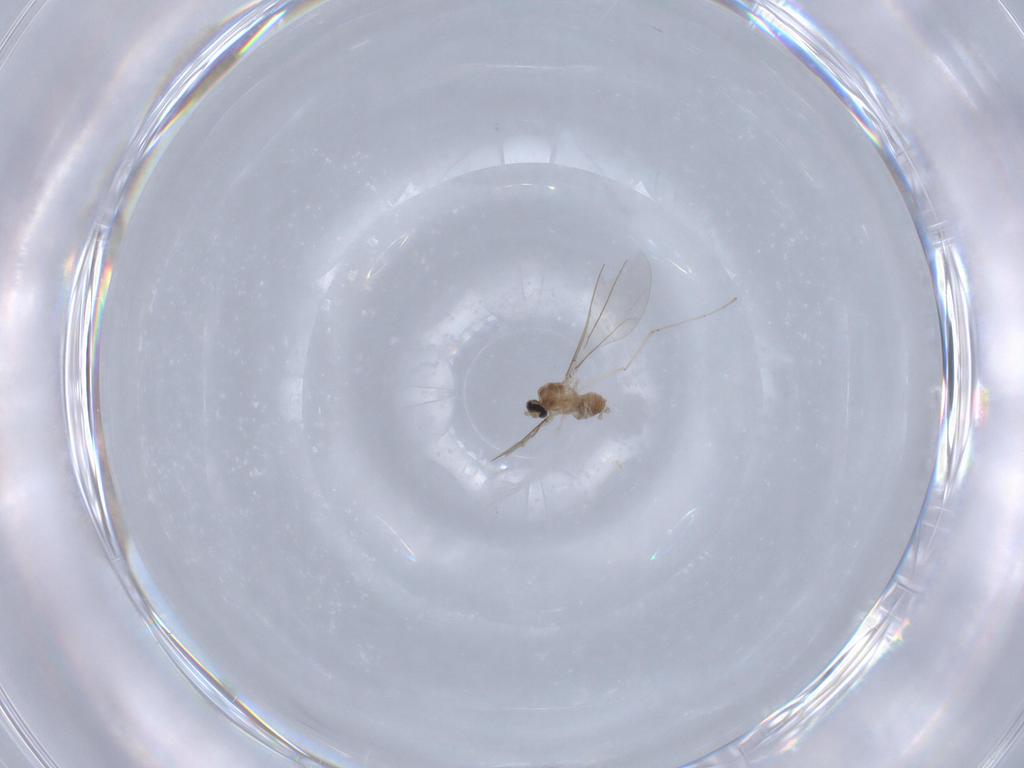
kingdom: Animalia
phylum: Arthropoda
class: Insecta
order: Diptera
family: Cecidomyiidae
